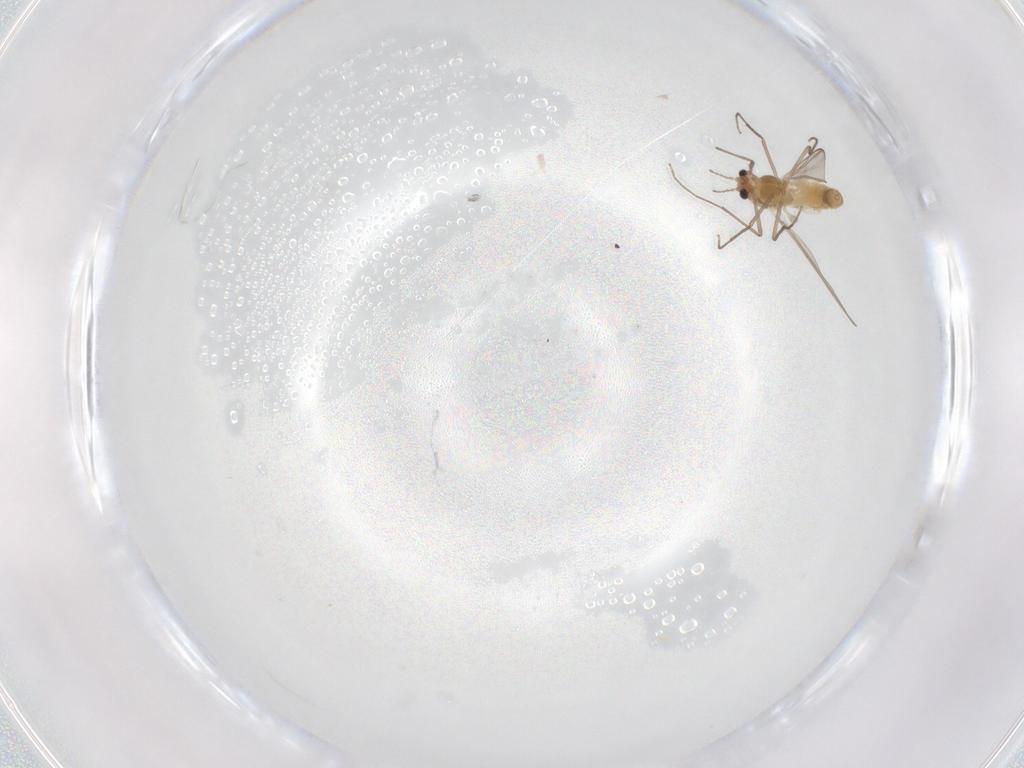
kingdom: Animalia
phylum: Arthropoda
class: Insecta
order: Diptera
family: Chironomidae
